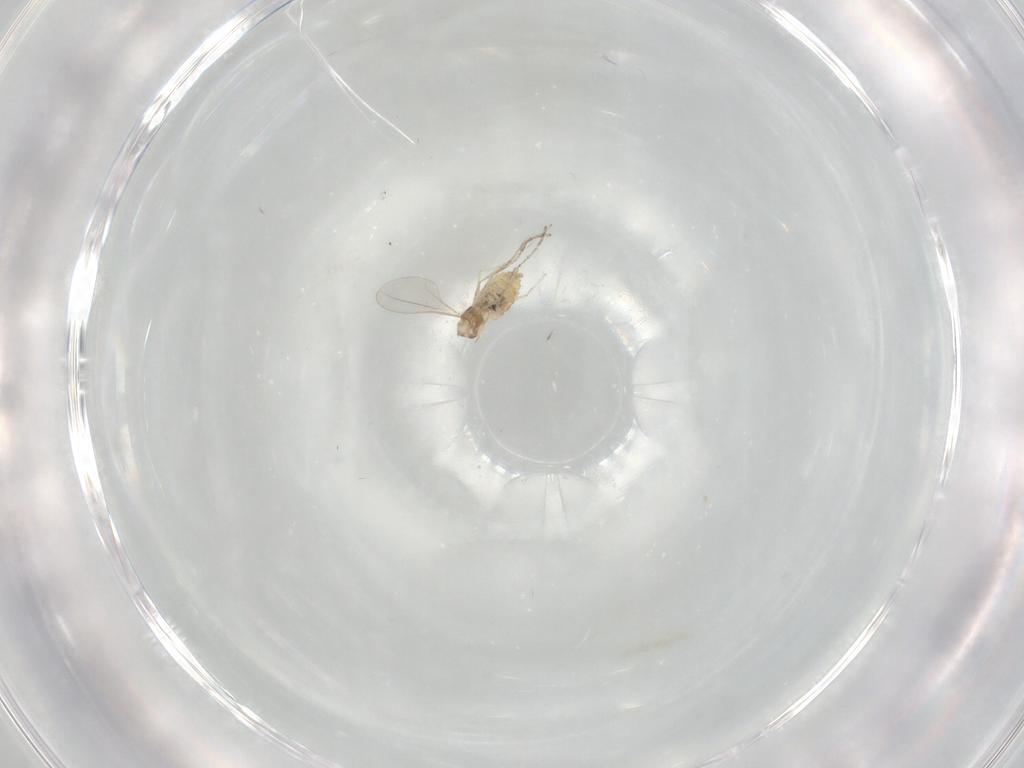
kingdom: Animalia
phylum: Arthropoda
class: Insecta
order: Diptera
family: Cecidomyiidae
